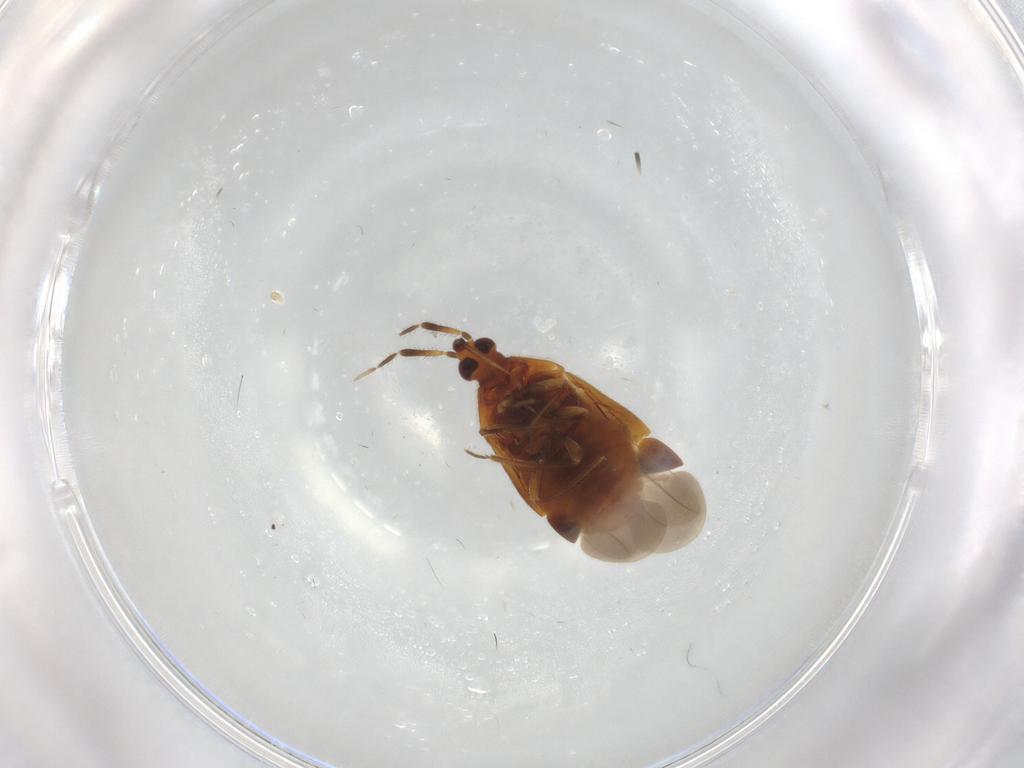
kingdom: Animalia
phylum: Arthropoda
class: Insecta
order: Hemiptera
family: Anthocoridae
